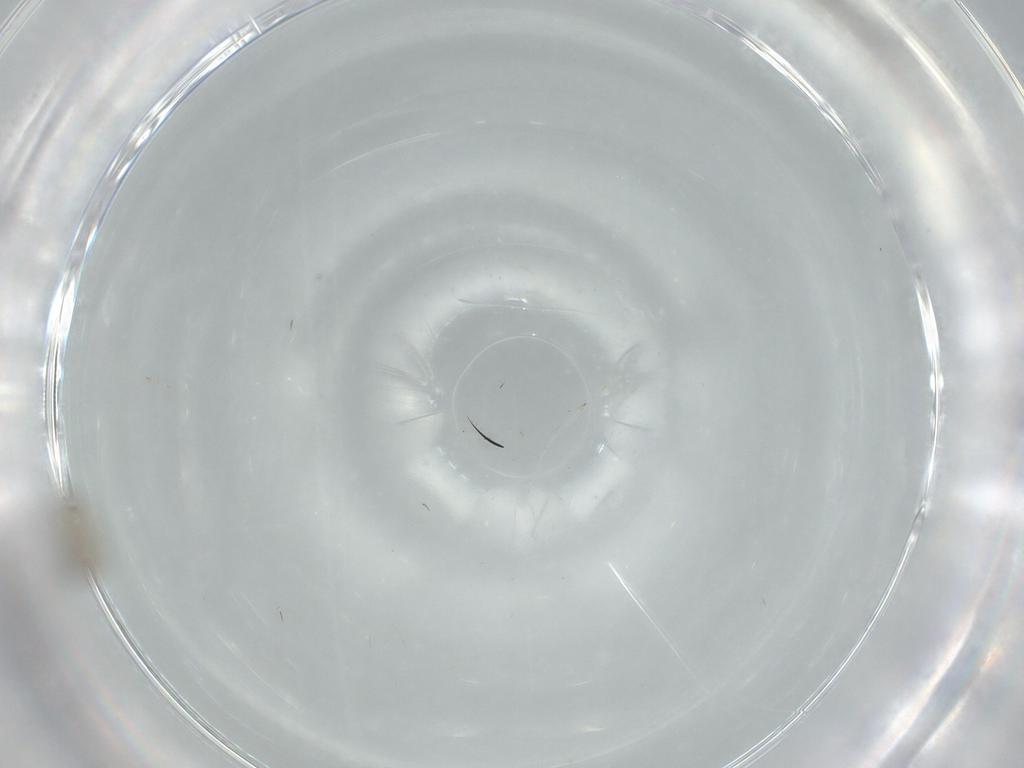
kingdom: Animalia
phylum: Arthropoda
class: Insecta
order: Diptera
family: Cecidomyiidae
